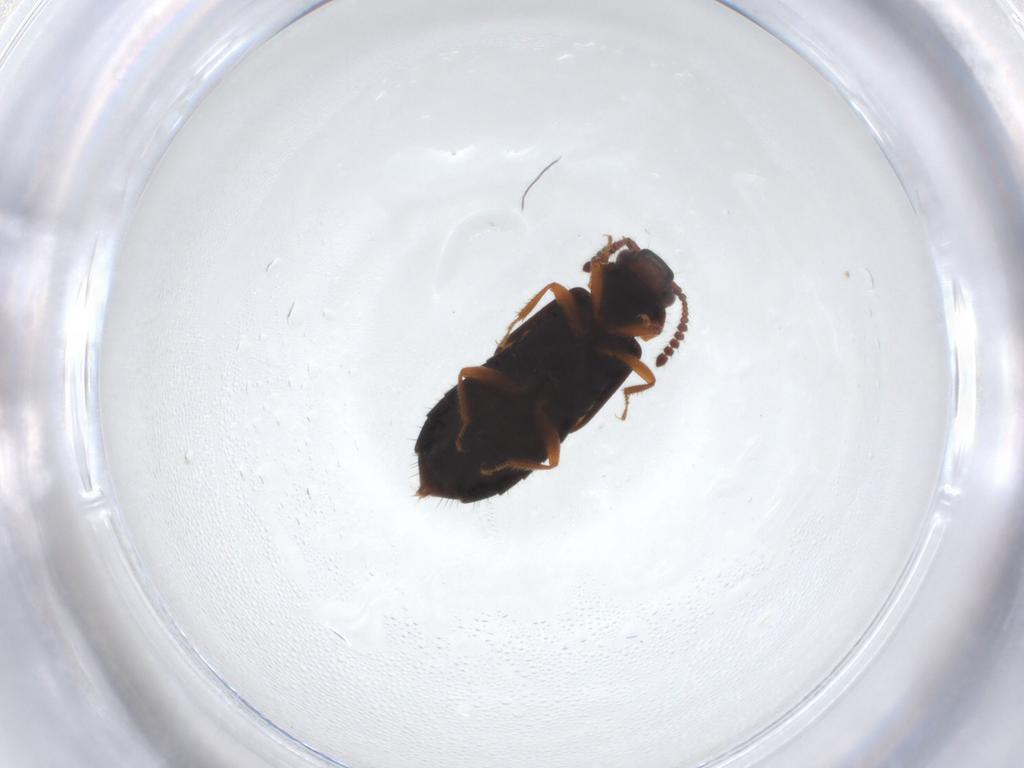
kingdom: Animalia
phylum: Arthropoda
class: Insecta
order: Coleoptera
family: Staphylinidae
